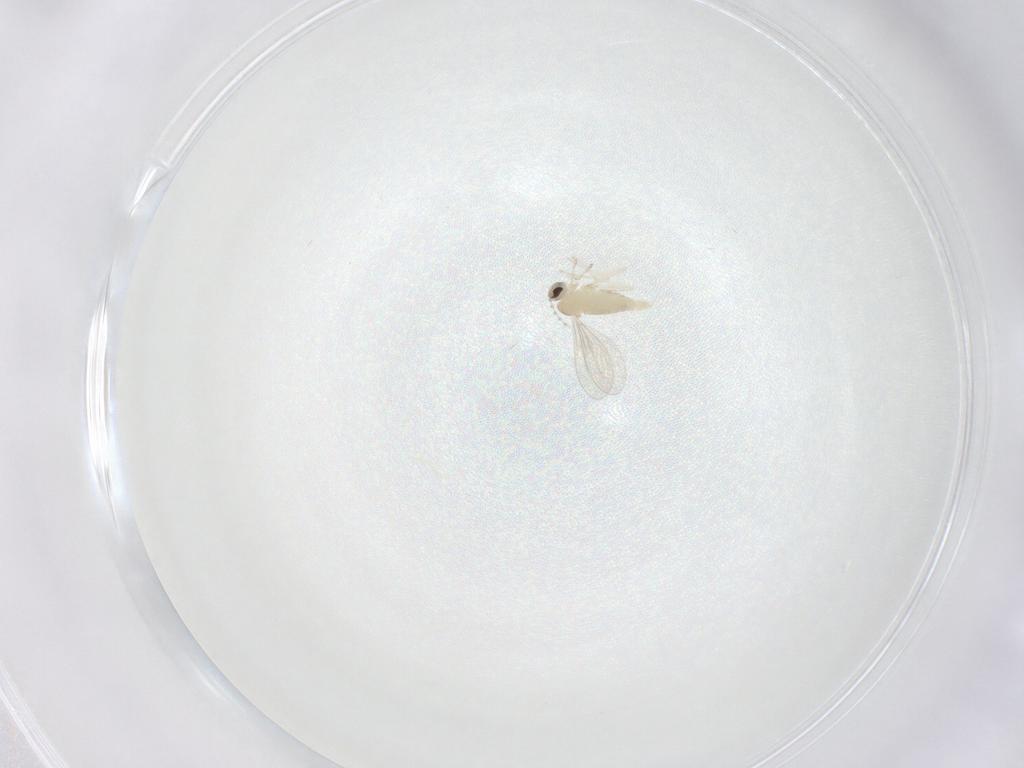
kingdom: Animalia
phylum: Arthropoda
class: Insecta
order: Diptera
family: Cecidomyiidae
